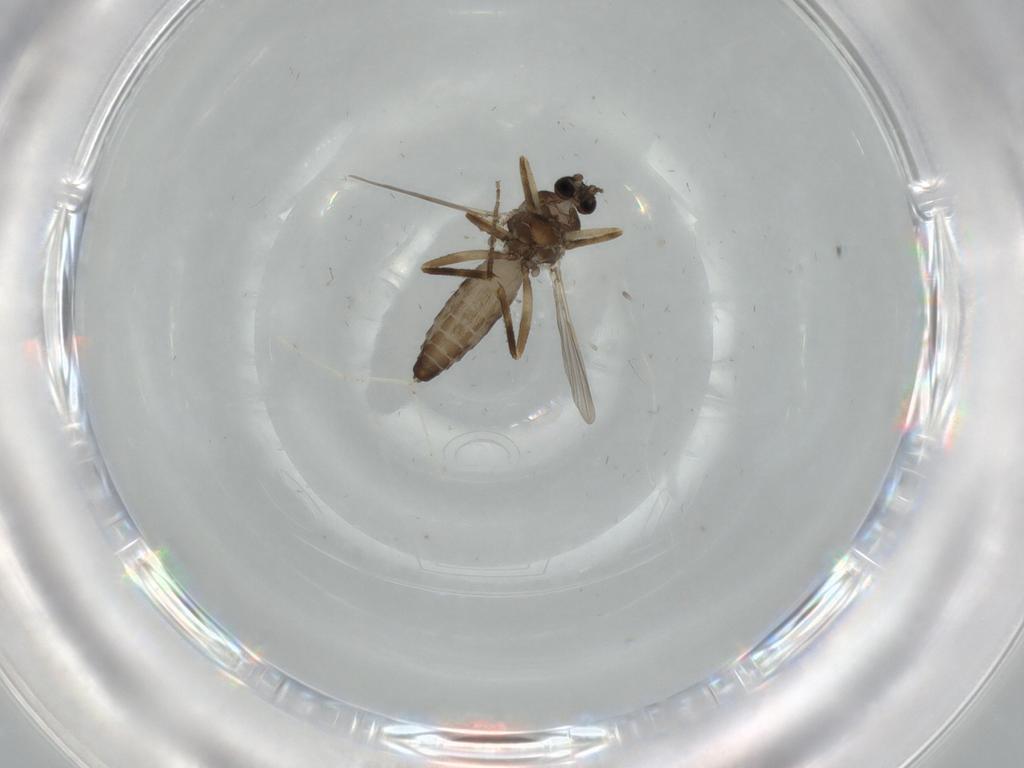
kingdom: Animalia
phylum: Arthropoda
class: Insecta
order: Diptera
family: Ceratopogonidae
